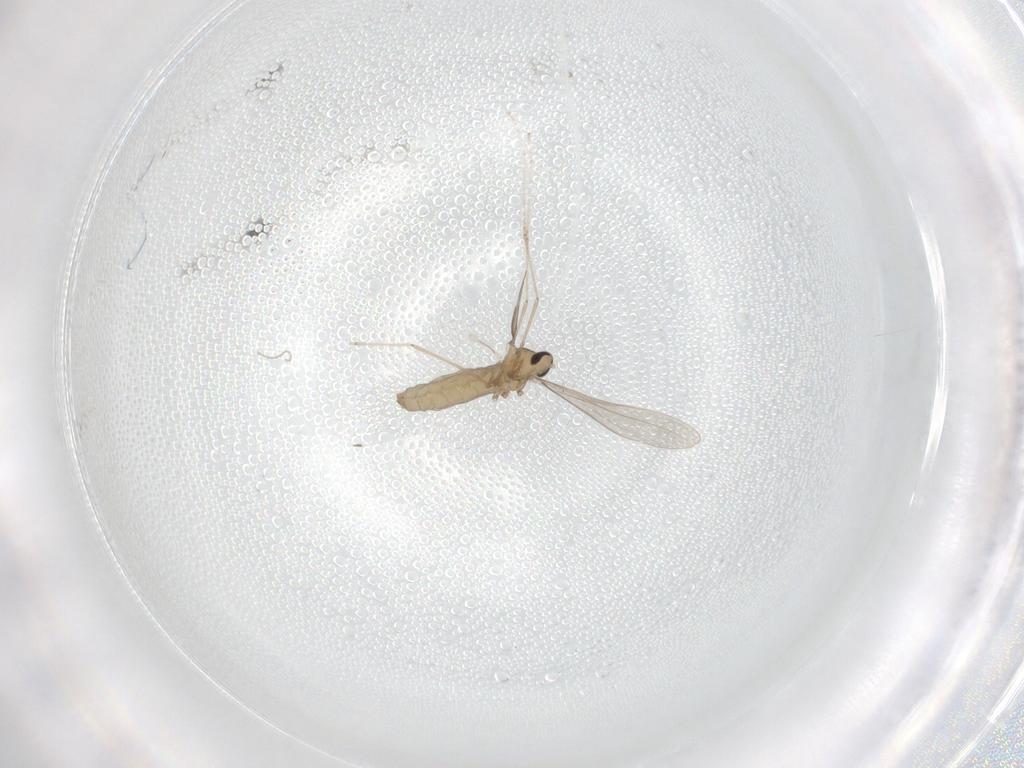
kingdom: Animalia
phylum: Arthropoda
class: Insecta
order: Diptera
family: Cecidomyiidae
